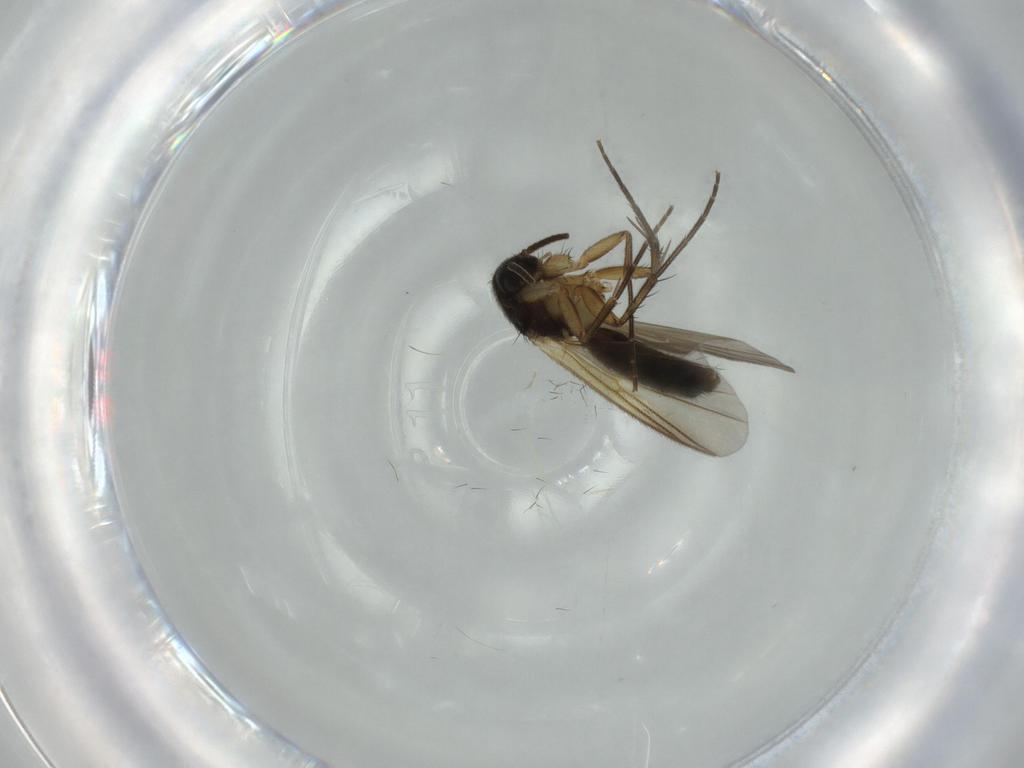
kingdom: Animalia
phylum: Arthropoda
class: Insecta
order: Diptera
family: Mycetophilidae
